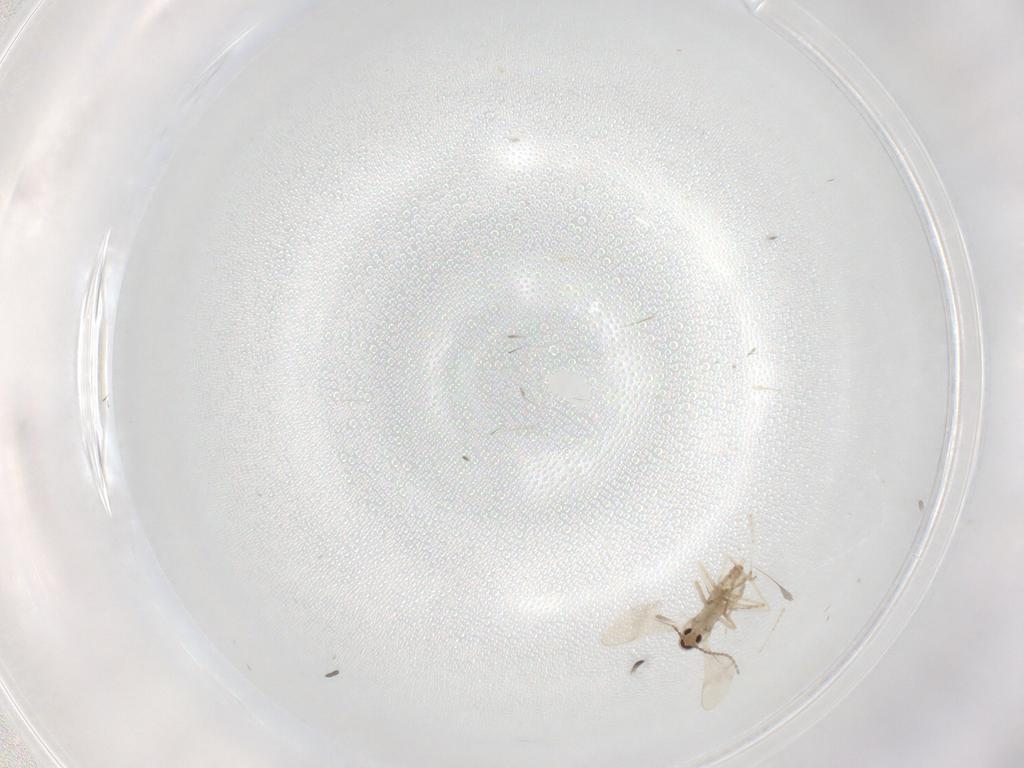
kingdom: Animalia
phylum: Arthropoda
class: Insecta
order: Diptera
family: Cecidomyiidae
